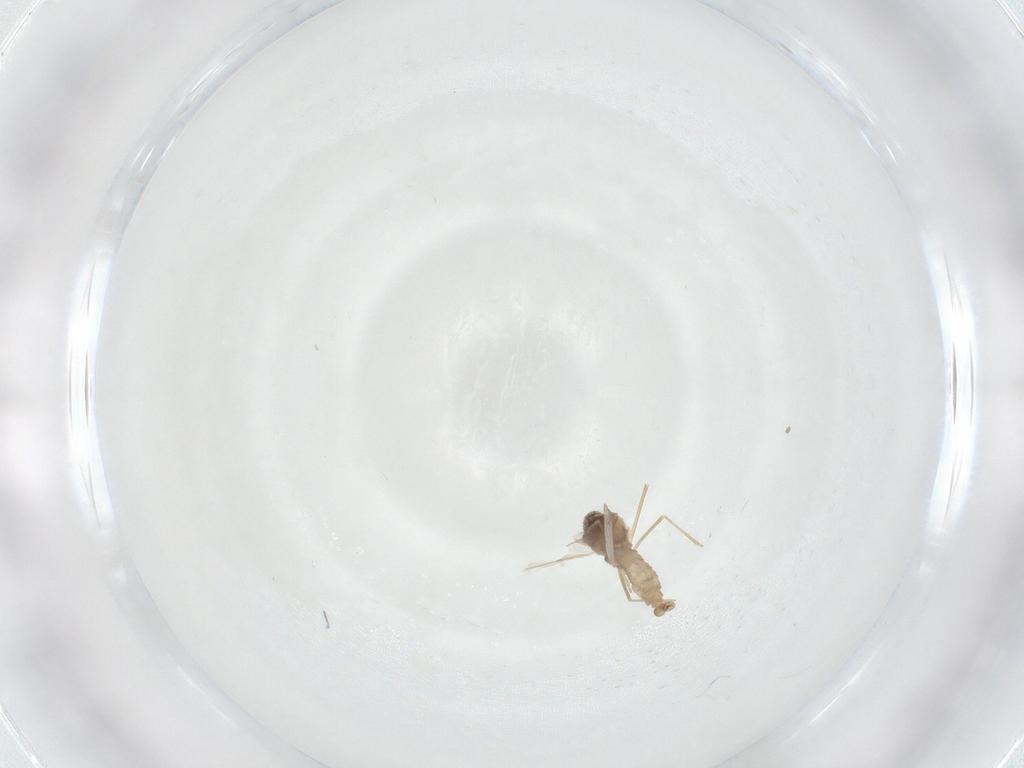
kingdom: Animalia
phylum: Arthropoda
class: Insecta
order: Diptera
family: Cecidomyiidae
